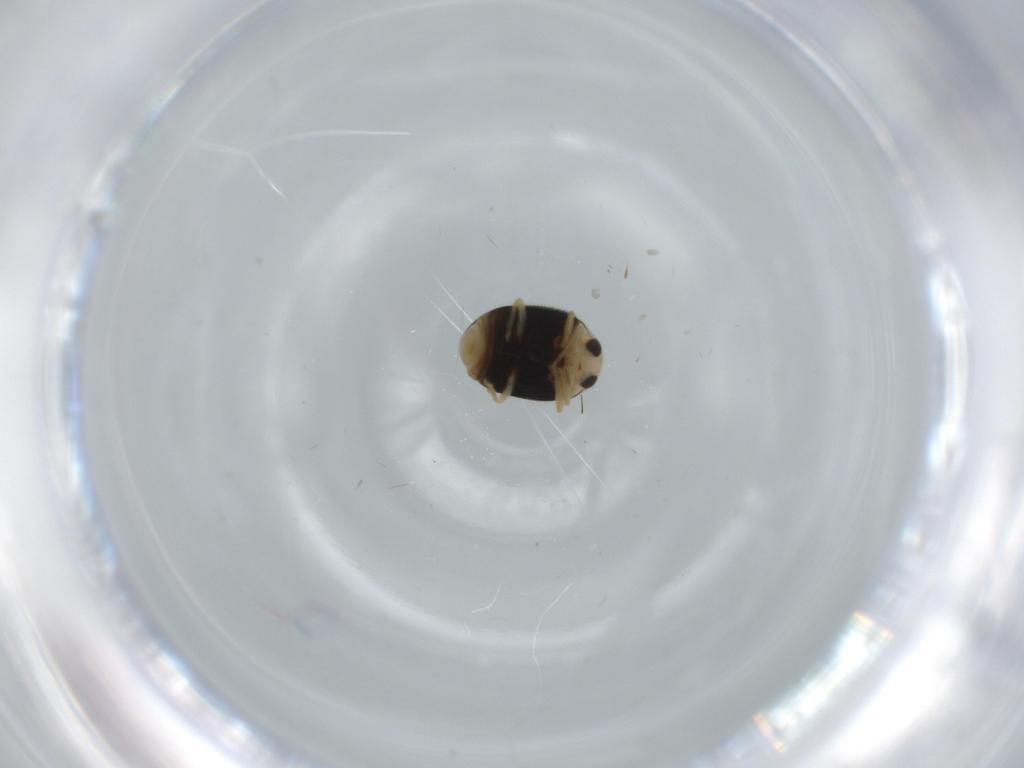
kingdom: Animalia
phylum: Arthropoda
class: Insecta
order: Coleoptera
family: Coccinellidae
